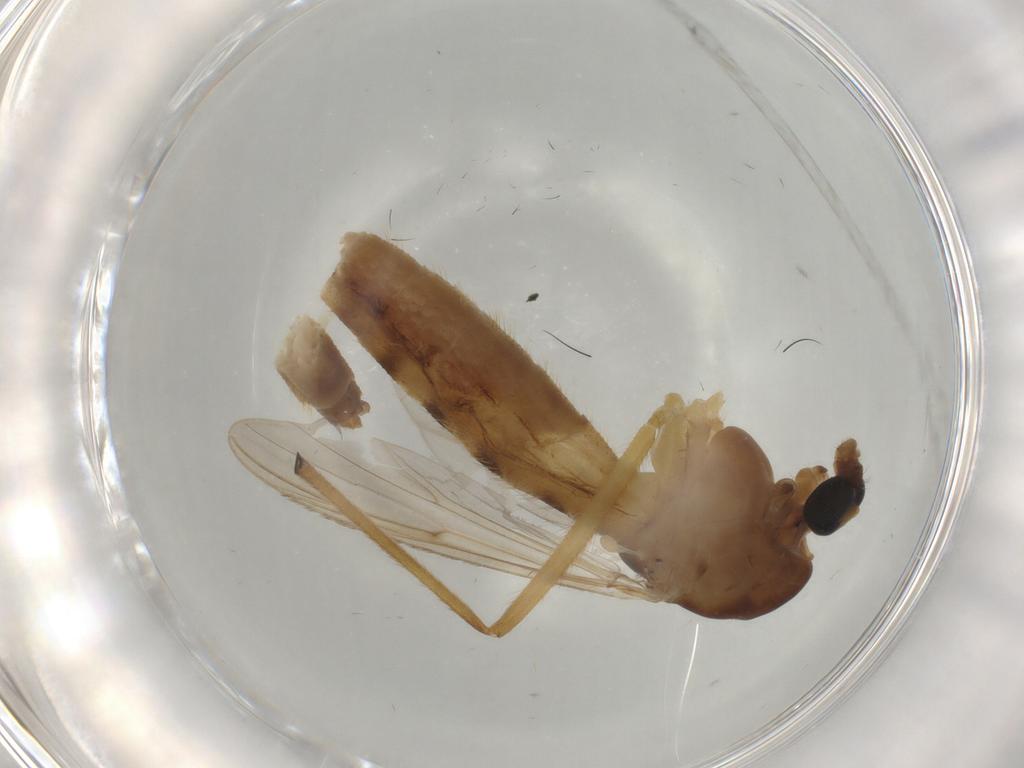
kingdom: Animalia
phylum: Arthropoda
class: Insecta
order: Diptera
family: Chironomidae
